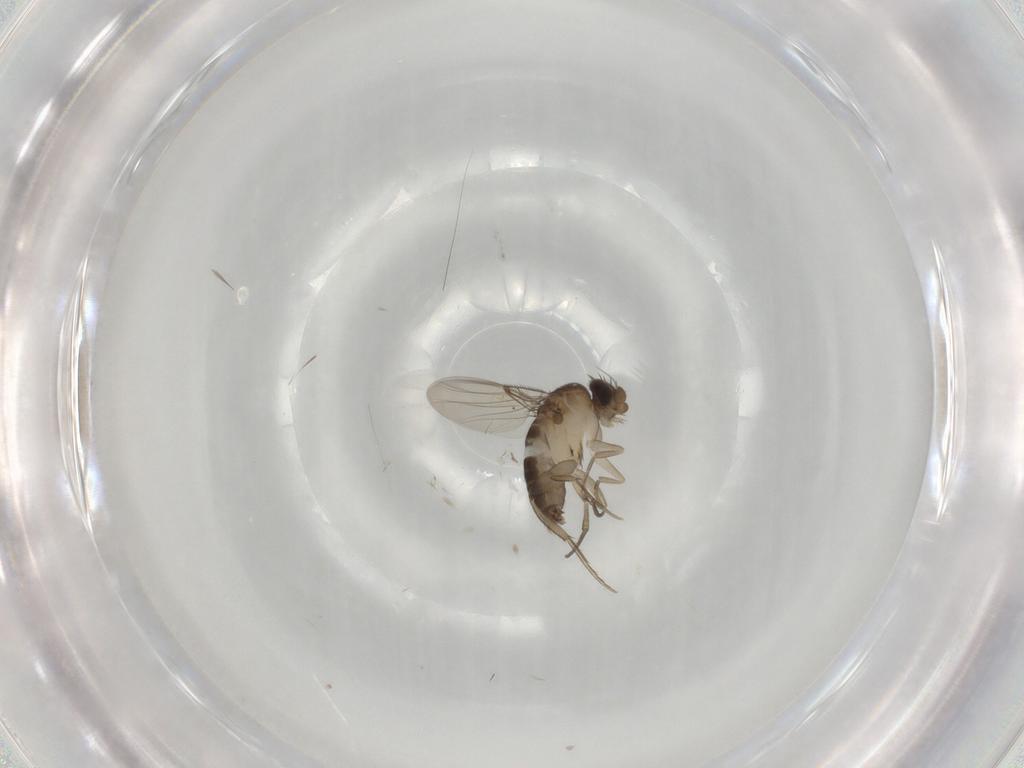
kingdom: Animalia
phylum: Arthropoda
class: Insecta
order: Diptera
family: Phoridae
